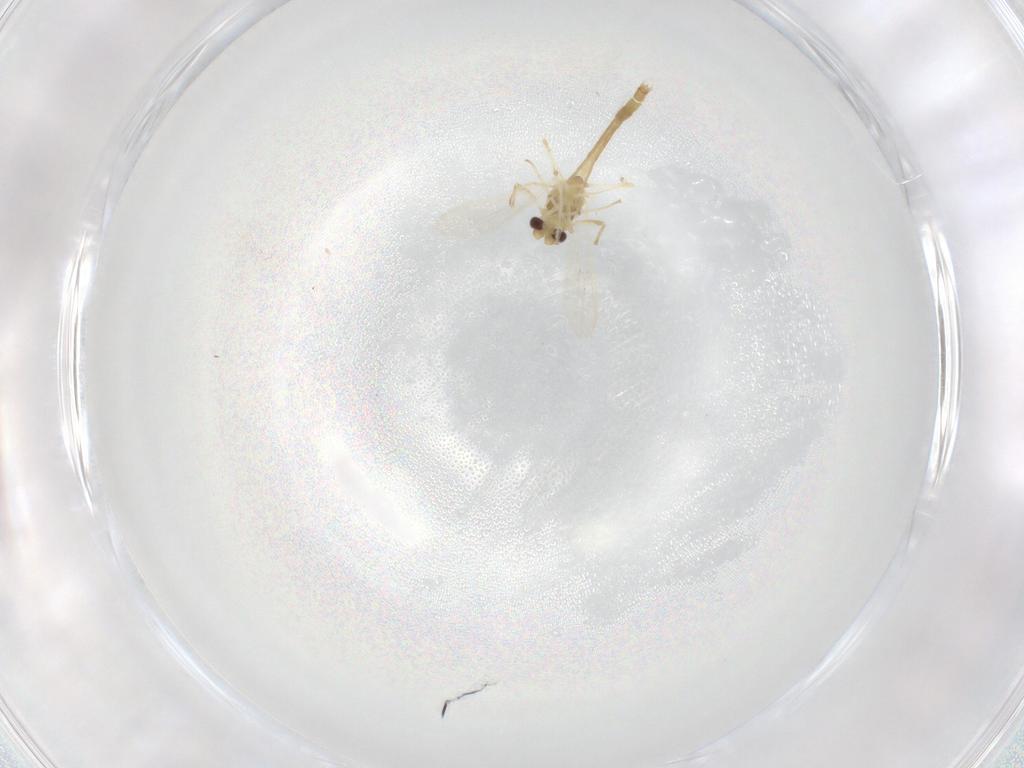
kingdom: Animalia
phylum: Arthropoda
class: Insecta
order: Diptera
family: Chironomidae
